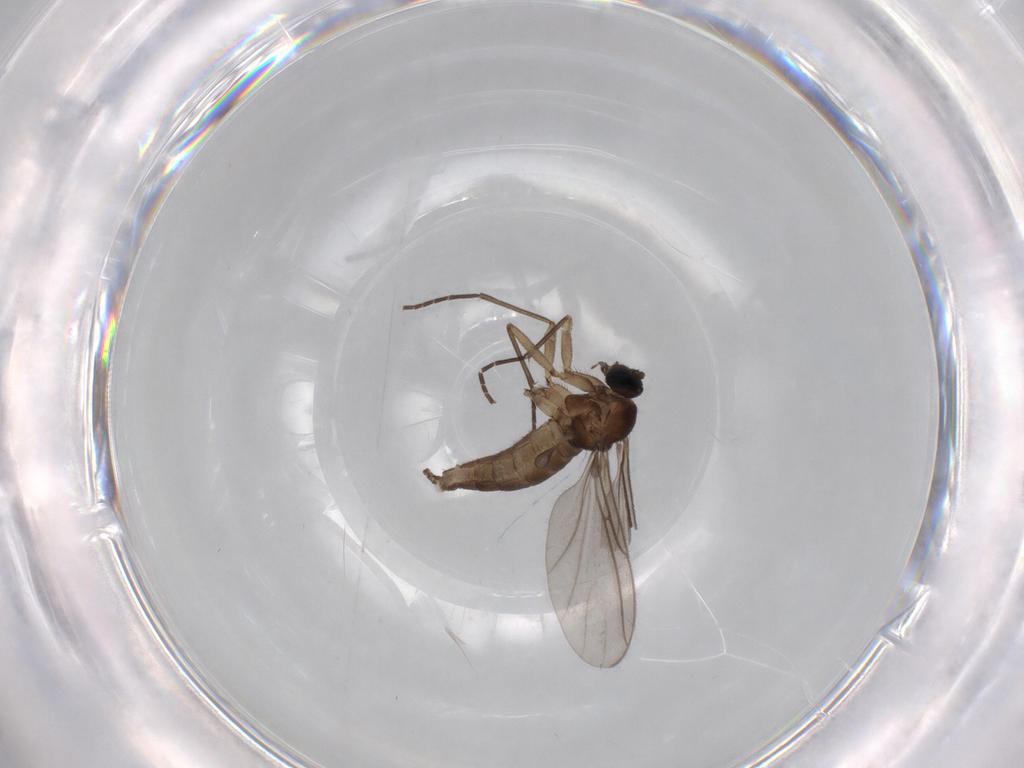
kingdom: Animalia
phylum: Arthropoda
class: Insecta
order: Diptera
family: Sciaridae
